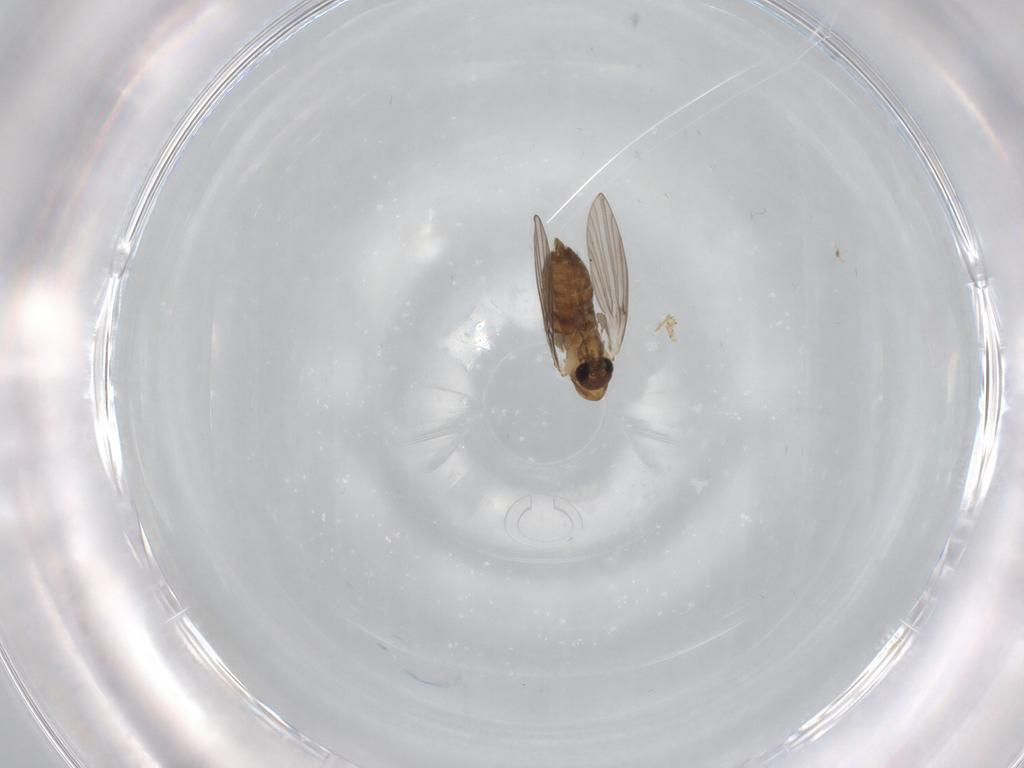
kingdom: Animalia
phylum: Arthropoda
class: Insecta
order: Diptera
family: Psychodidae
